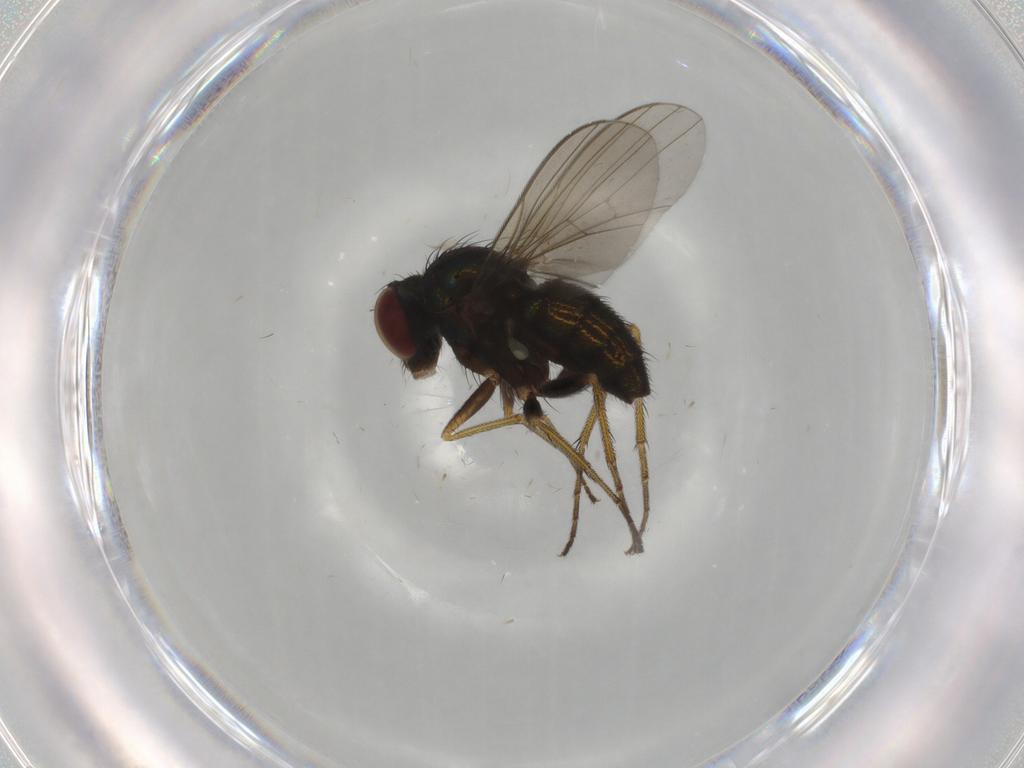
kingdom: Animalia
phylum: Arthropoda
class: Insecta
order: Diptera
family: Dolichopodidae
